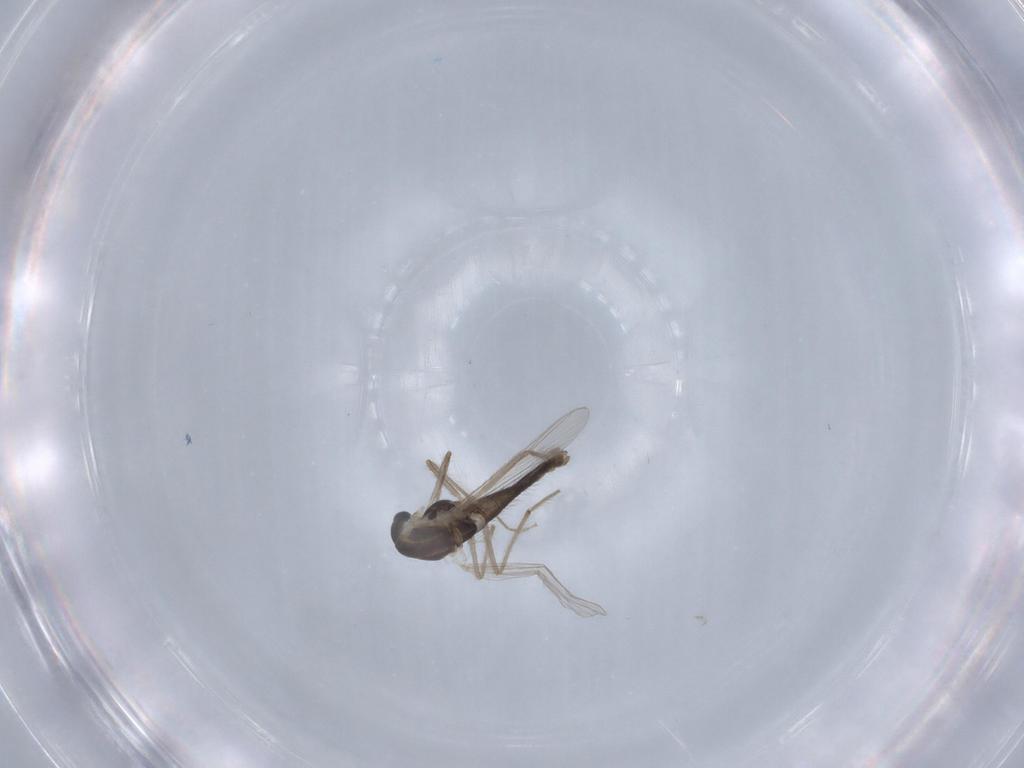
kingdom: Animalia
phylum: Arthropoda
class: Insecta
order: Diptera
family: Chironomidae
